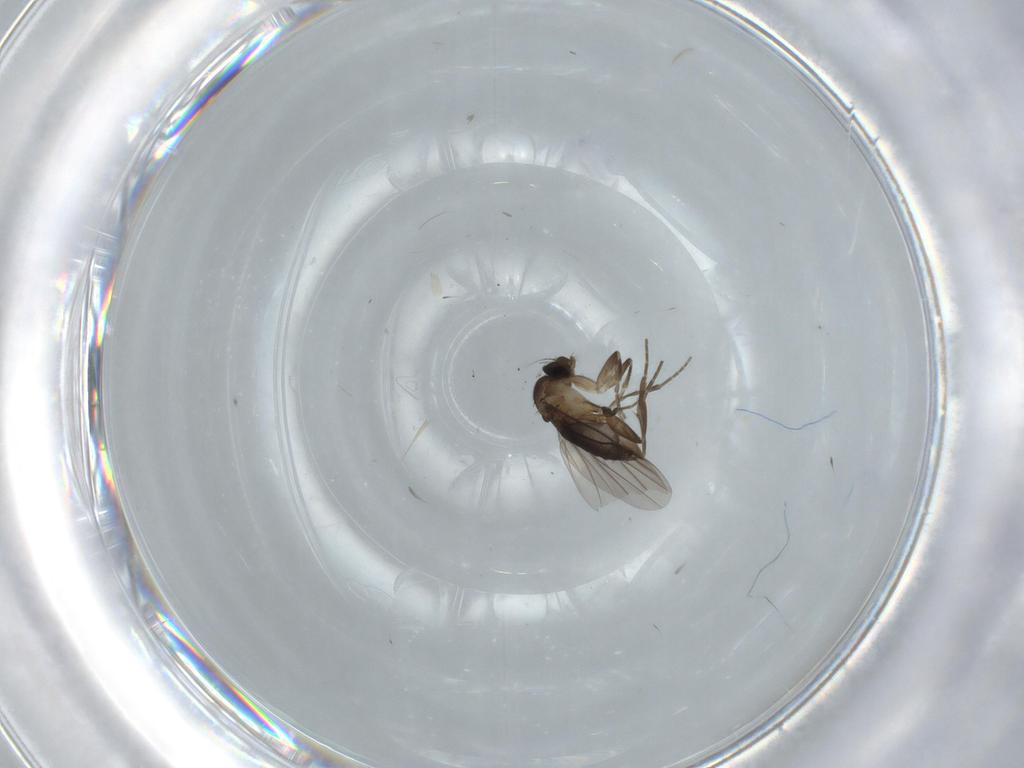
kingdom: Animalia
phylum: Arthropoda
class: Insecta
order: Diptera
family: Milichiidae
